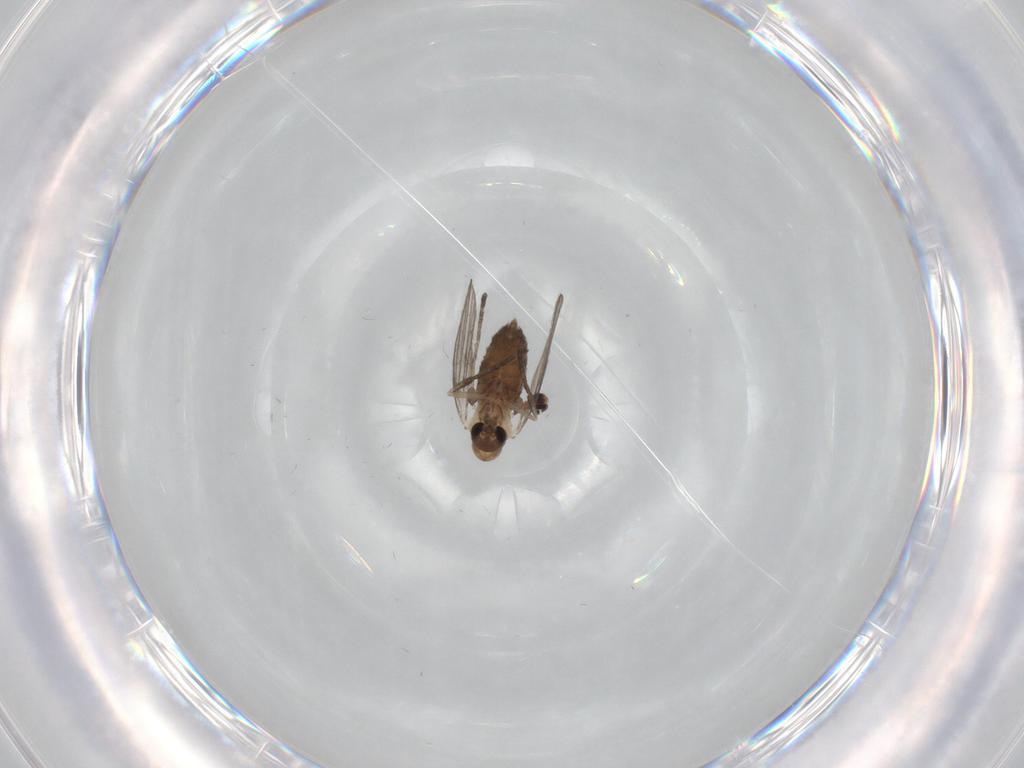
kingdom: Animalia
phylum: Arthropoda
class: Insecta
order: Diptera
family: Psychodidae
